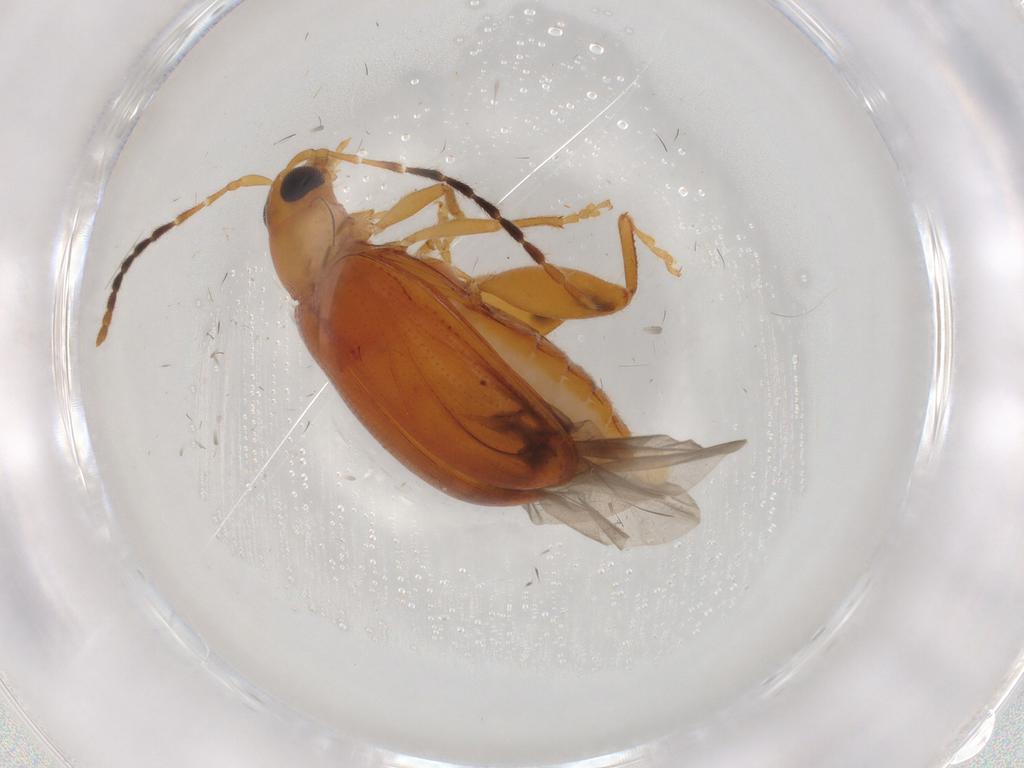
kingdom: Animalia
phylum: Arthropoda
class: Insecta
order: Coleoptera
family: Chrysomelidae
